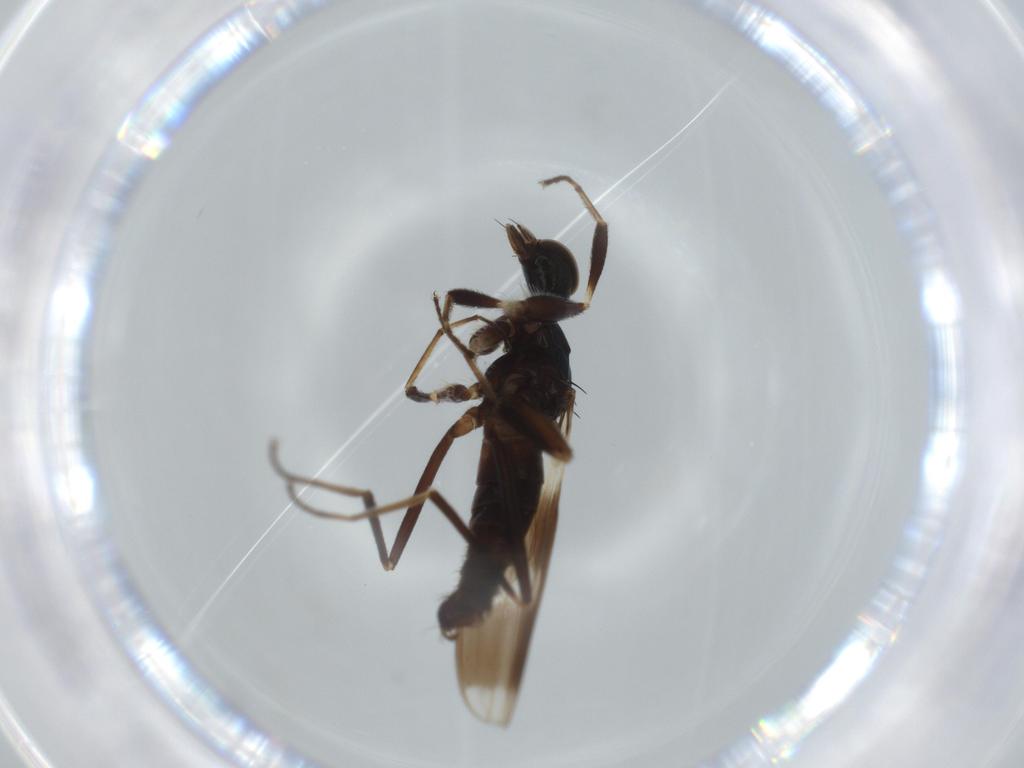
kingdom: Animalia
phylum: Arthropoda
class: Insecta
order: Diptera
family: Hybotidae
